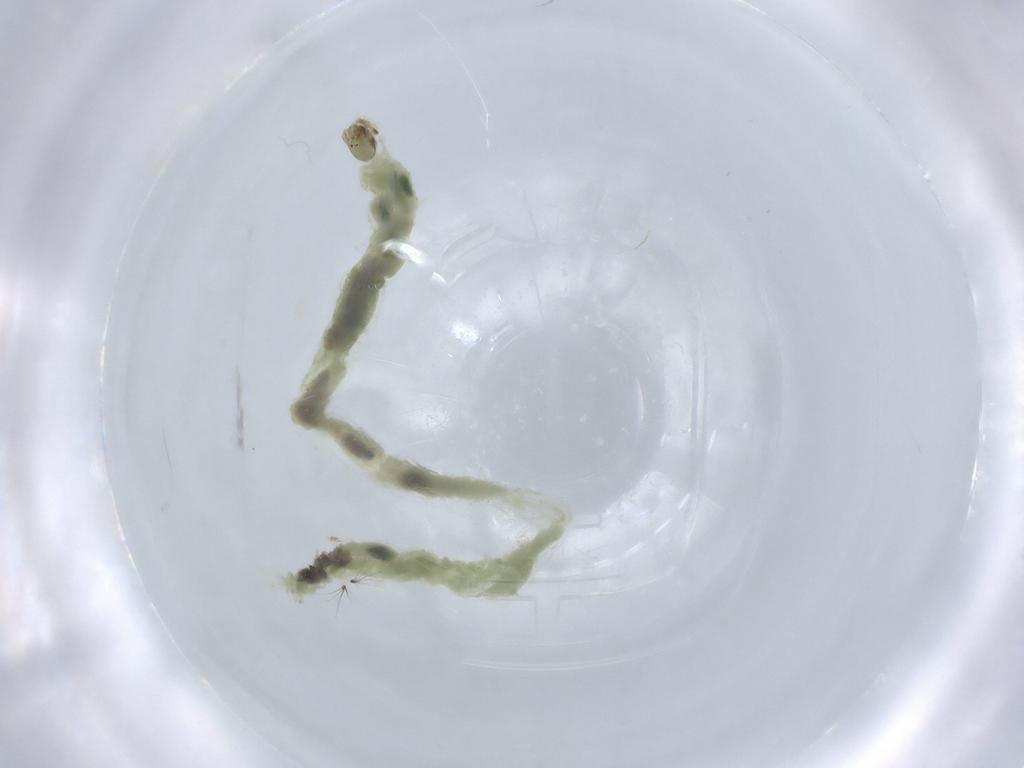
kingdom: Animalia
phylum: Arthropoda
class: Insecta
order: Diptera
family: Chironomidae
